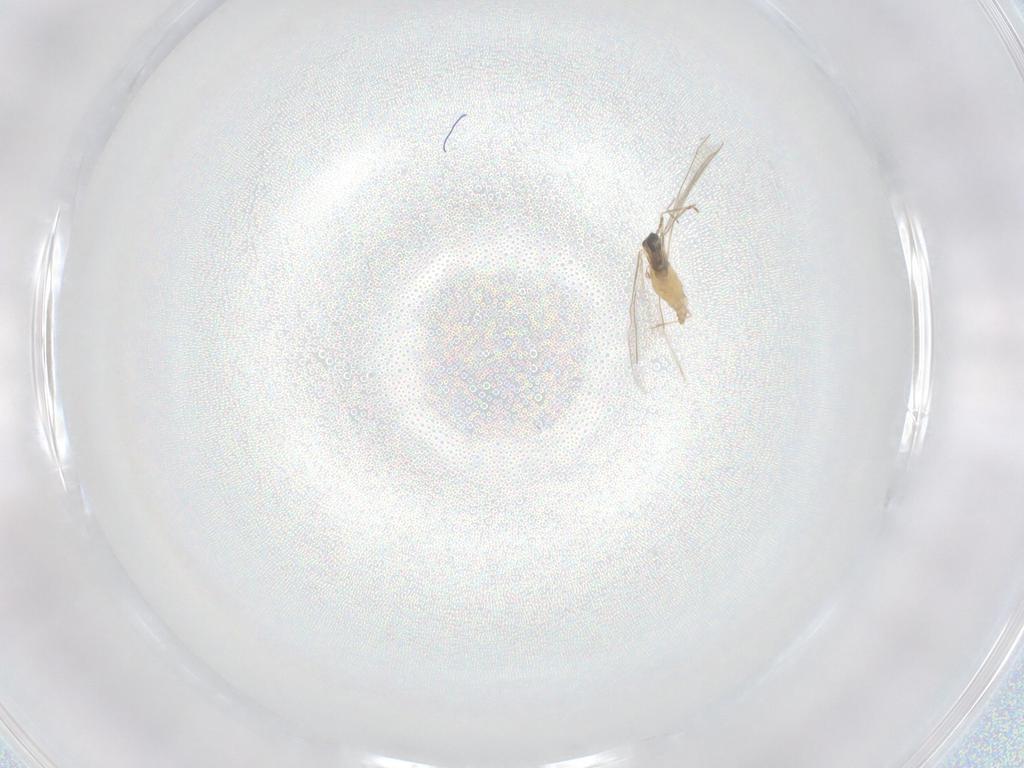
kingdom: Animalia
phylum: Arthropoda
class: Insecta
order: Diptera
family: Cecidomyiidae
